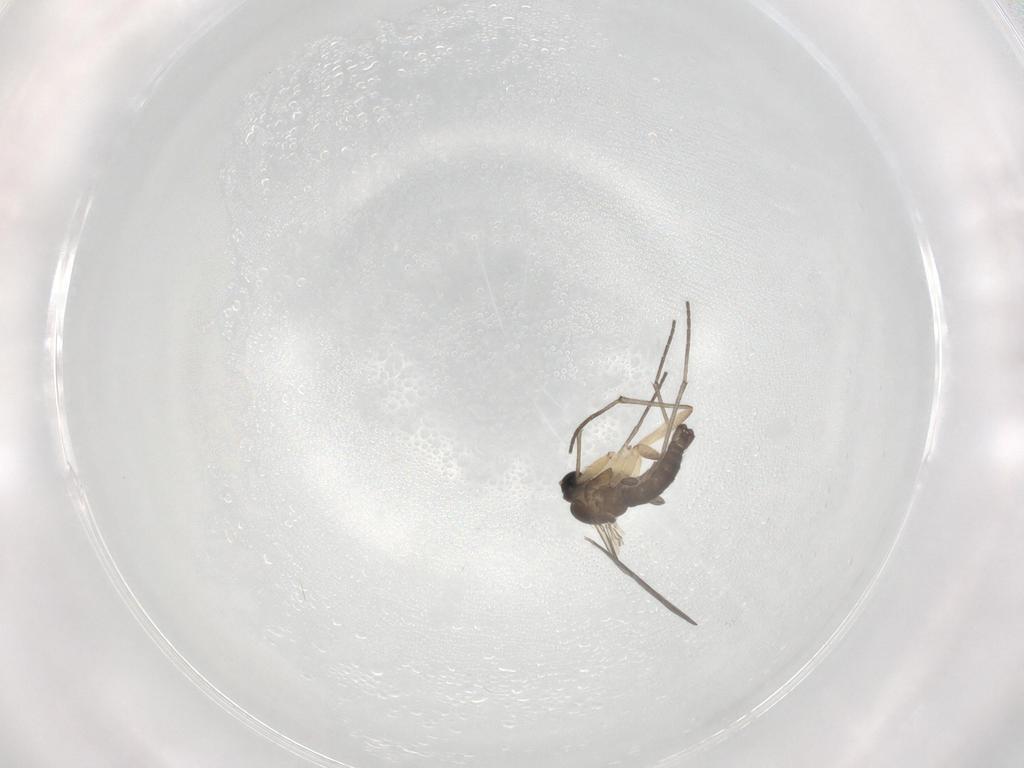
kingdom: Animalia
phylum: Arthropoda
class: Insecta
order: Diptera
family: Sciaridae
